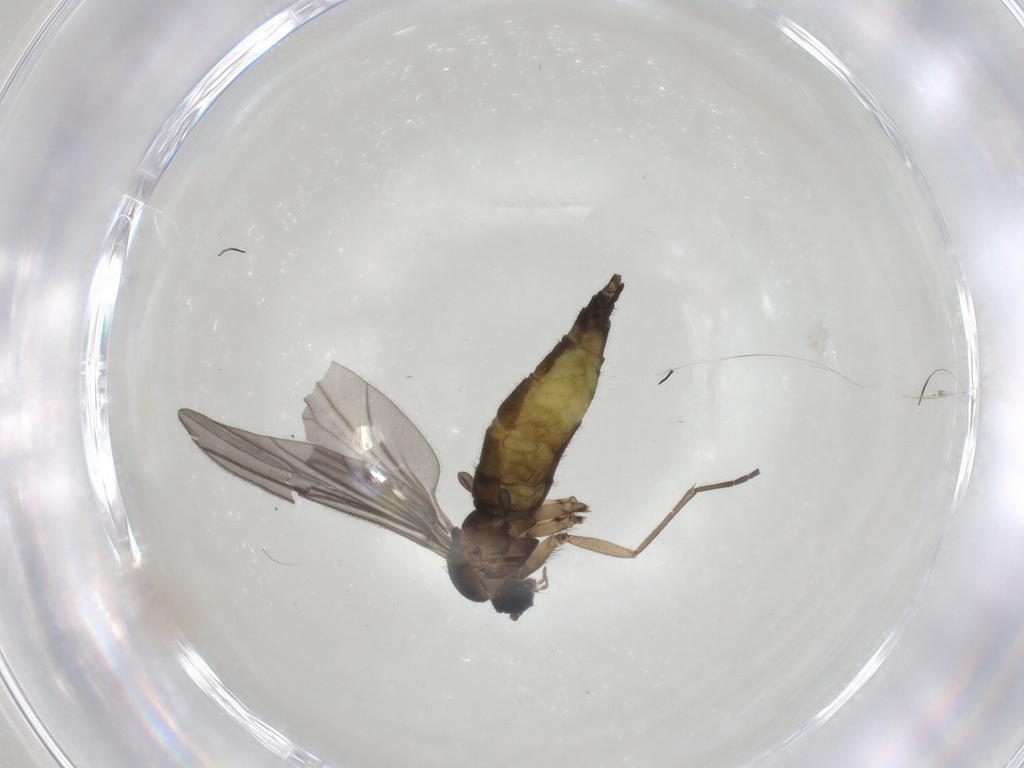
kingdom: Animalia
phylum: Arthropoda
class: Insecta
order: Diptera
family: Sciaridae
